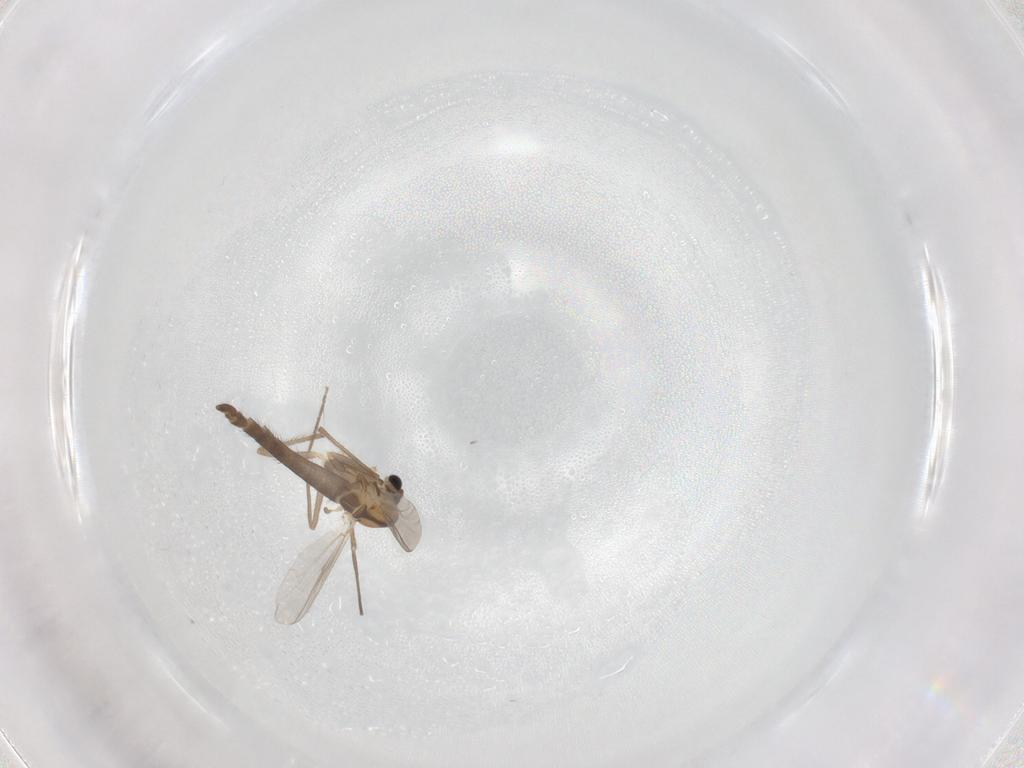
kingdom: Animalia
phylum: Arthropoda
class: Insecta
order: Diptera
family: Chironomidae
